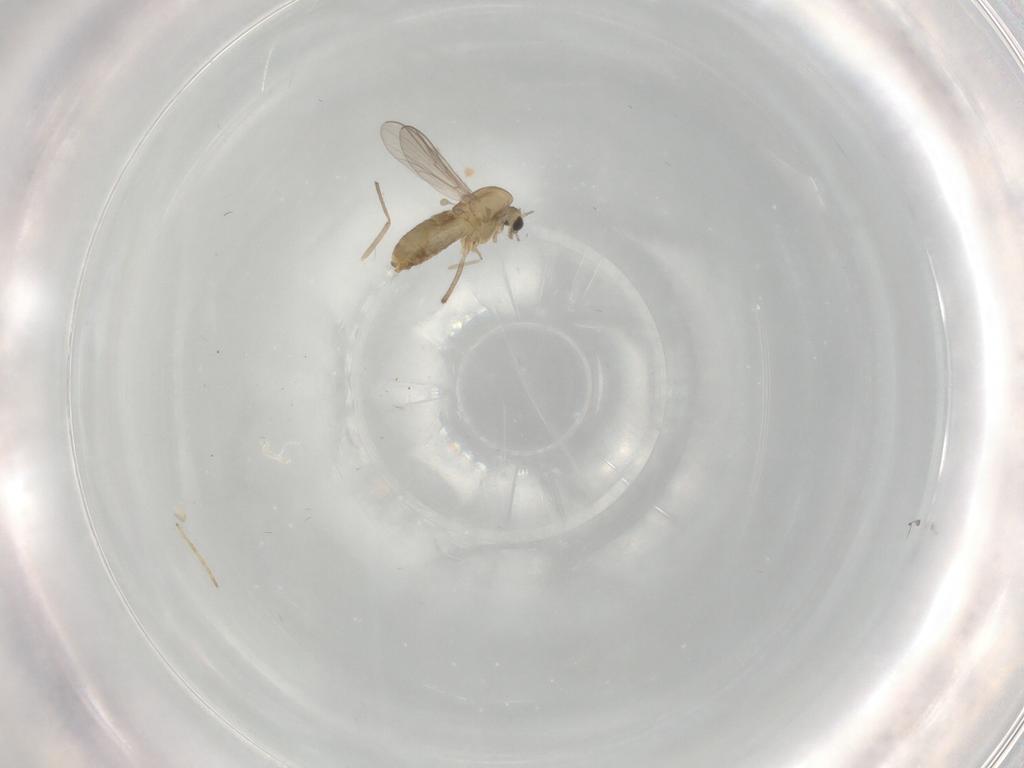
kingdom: Animalia
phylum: Arthropoda
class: Insecta
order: Diptera
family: Chironomidae
